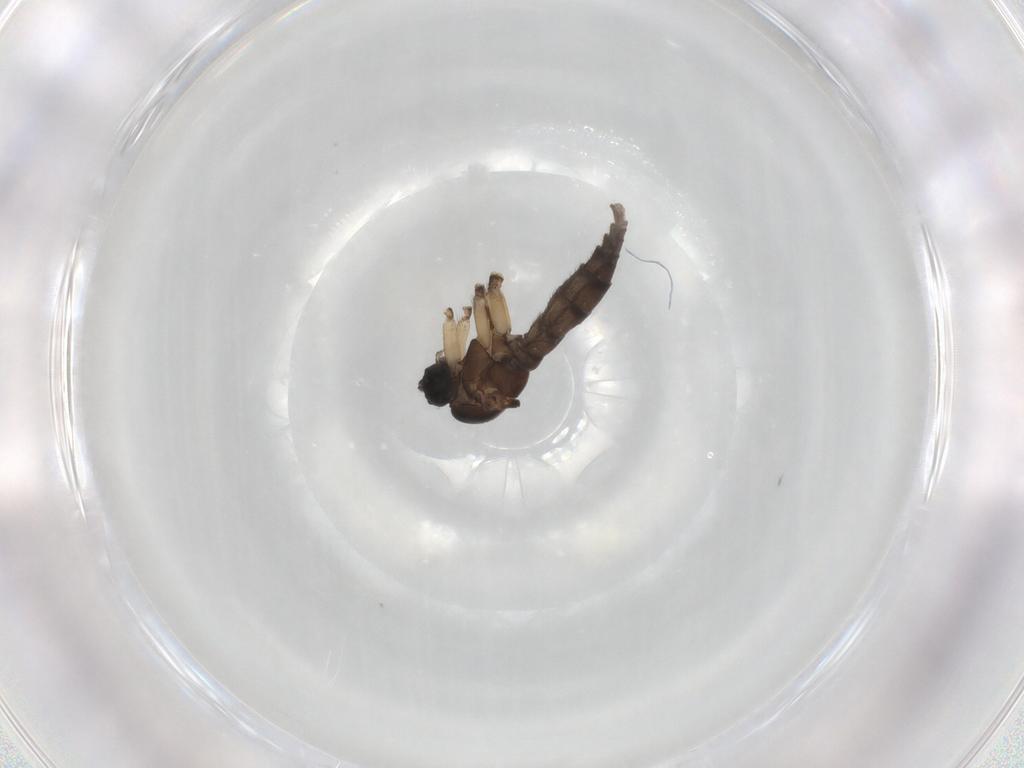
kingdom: Animalia
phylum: Arthropoda
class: Insecta
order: Diptera
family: Sciaridae
